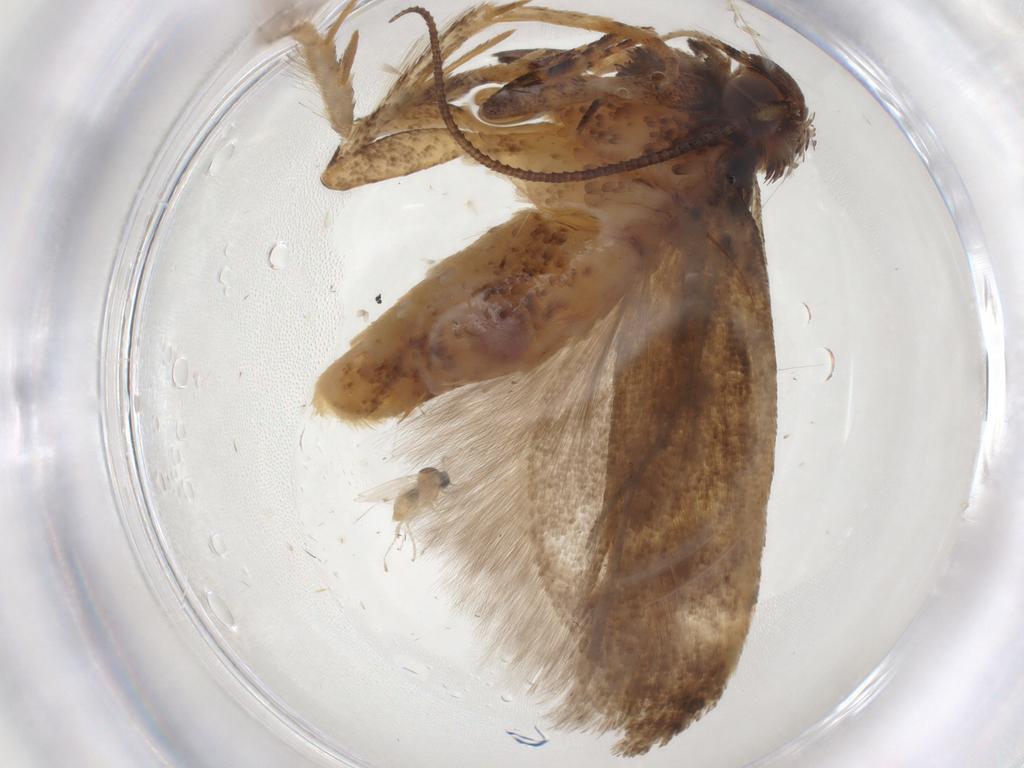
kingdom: Animalia
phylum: Arthropoda
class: Insecta
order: Lepidoptera
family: Gelechiidae
